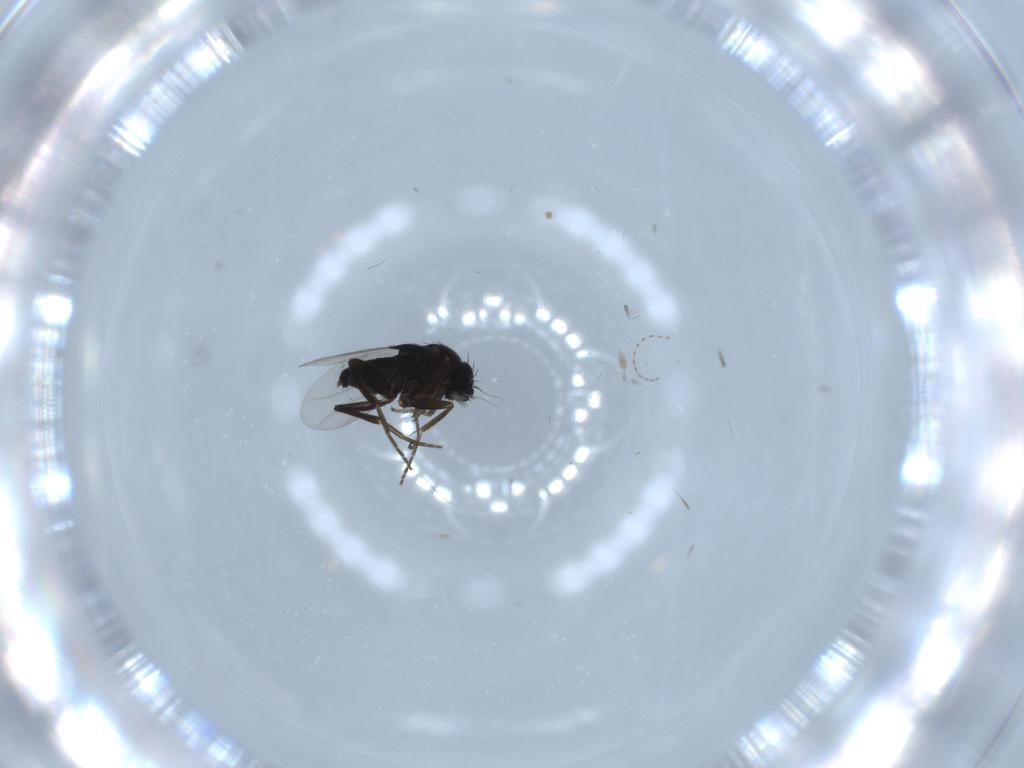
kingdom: Animalia
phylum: Arthropoda
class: Insecta
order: Diptera
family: Phoridae
